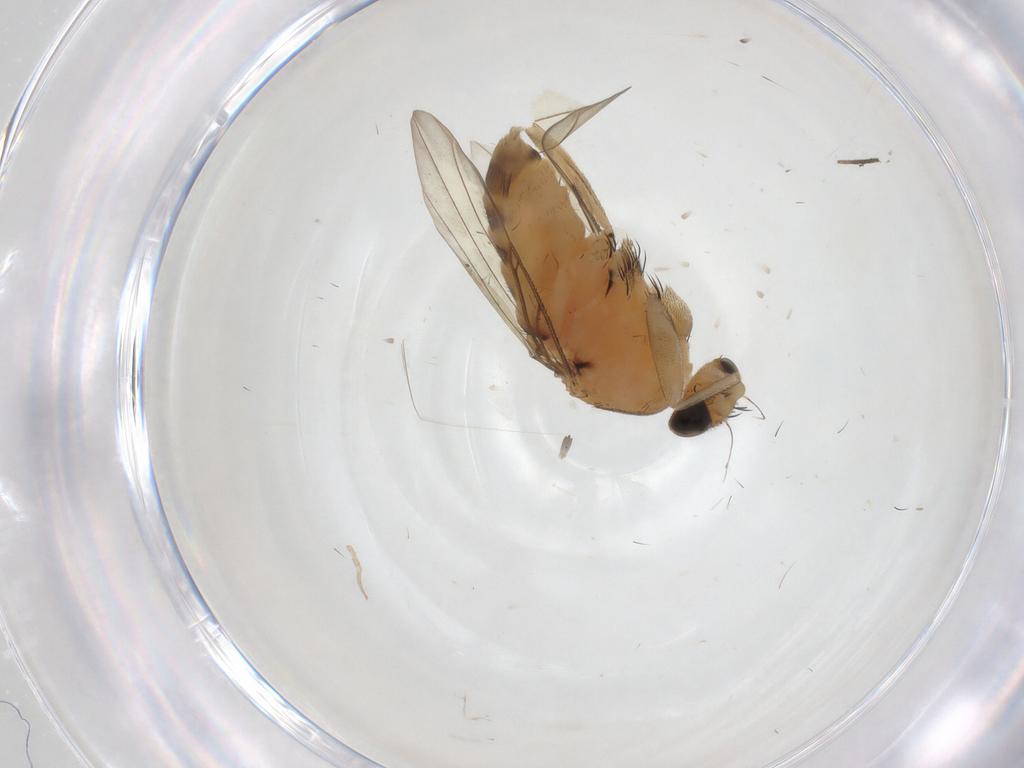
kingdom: Animalia
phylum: Arthropoda
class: Insecta
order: Diptera
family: Phoridae
